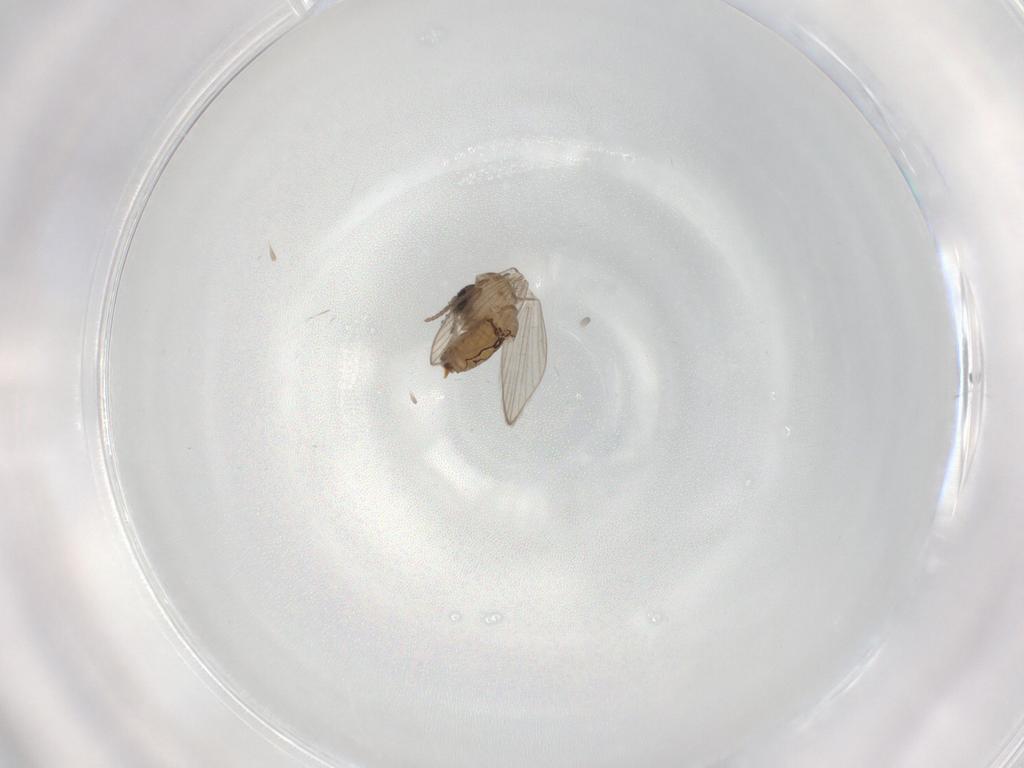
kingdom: Animalia
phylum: Arthropoda
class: Insecta
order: Diptera
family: Psychodidae
